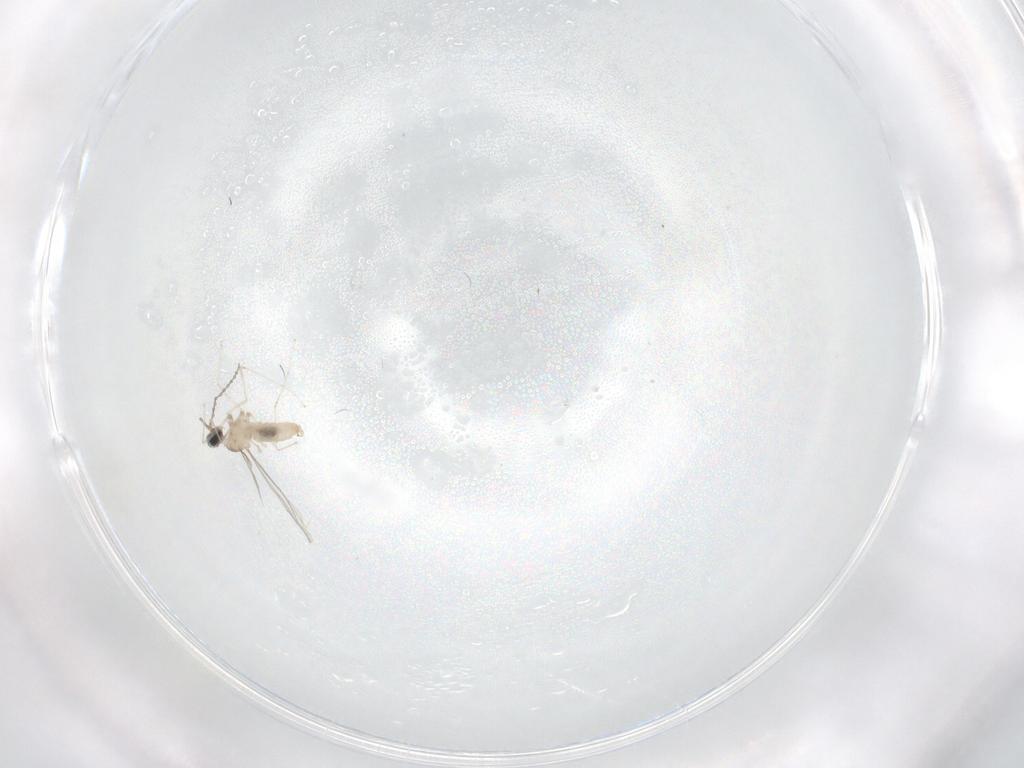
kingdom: Animalia
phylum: Arthropoda
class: Insecta
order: Diptera
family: Cecidomyiidae
